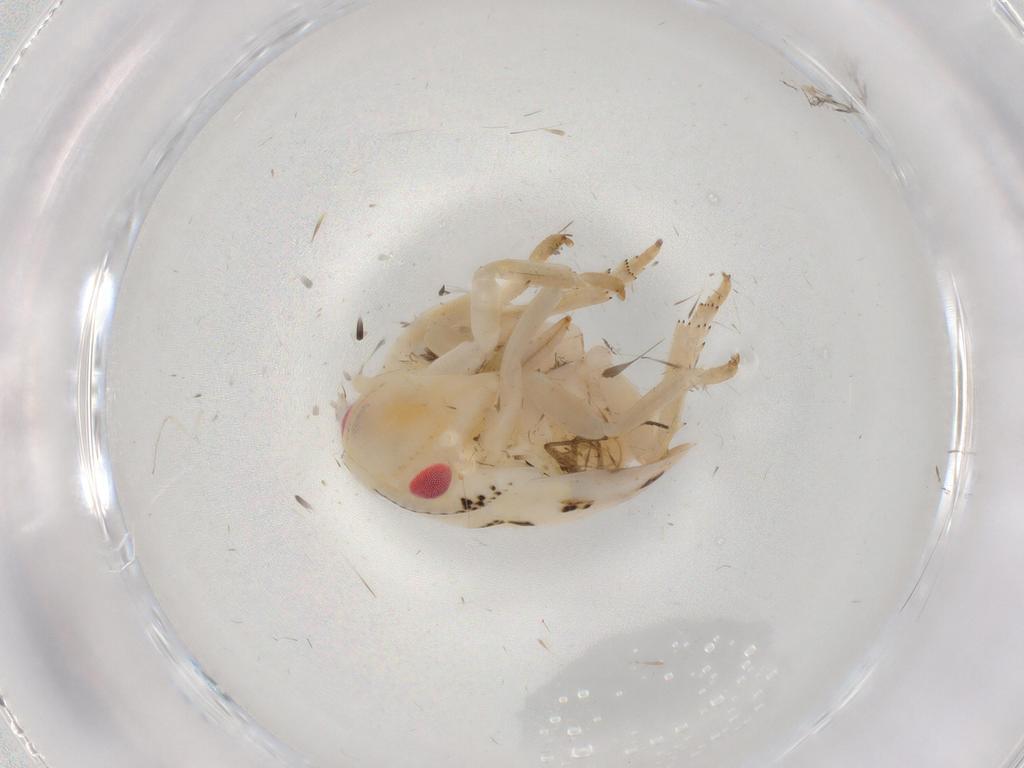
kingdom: Animalia
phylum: Arthropoda
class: Insecta
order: Hemiptera
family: Flatidae
